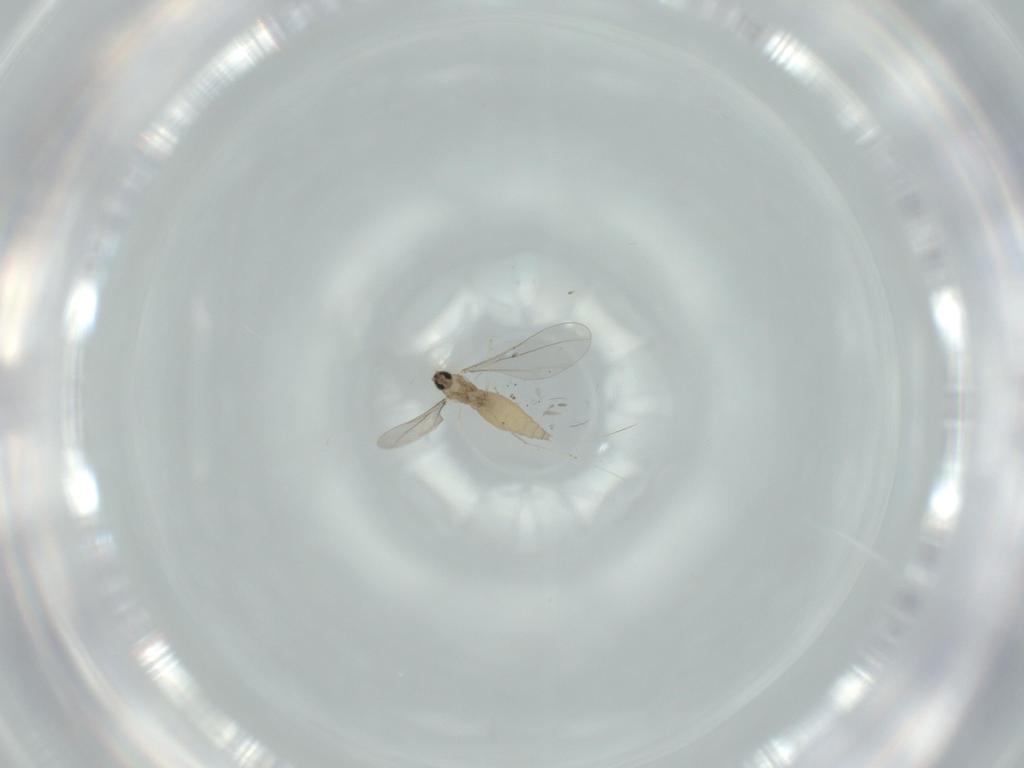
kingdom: Animalia
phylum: Arthropoda
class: Insecta
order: Diptera
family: Cecidomyiidae
